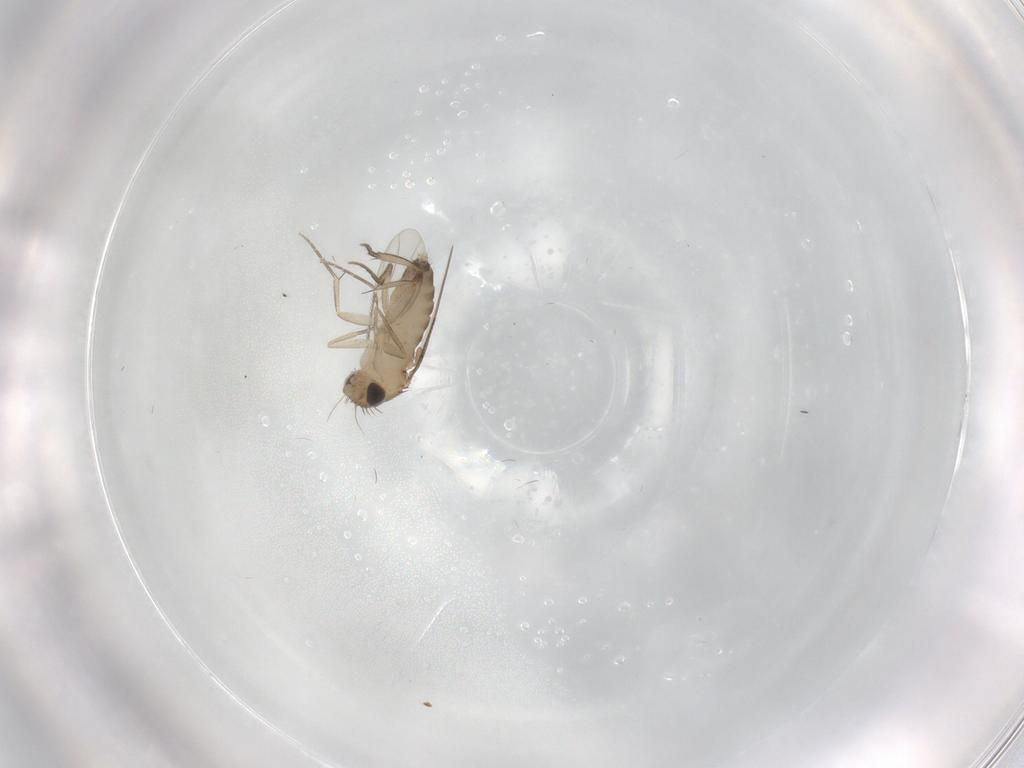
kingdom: Animalia
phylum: Arthropoda
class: Insecta
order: Diptera
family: Phoridae
